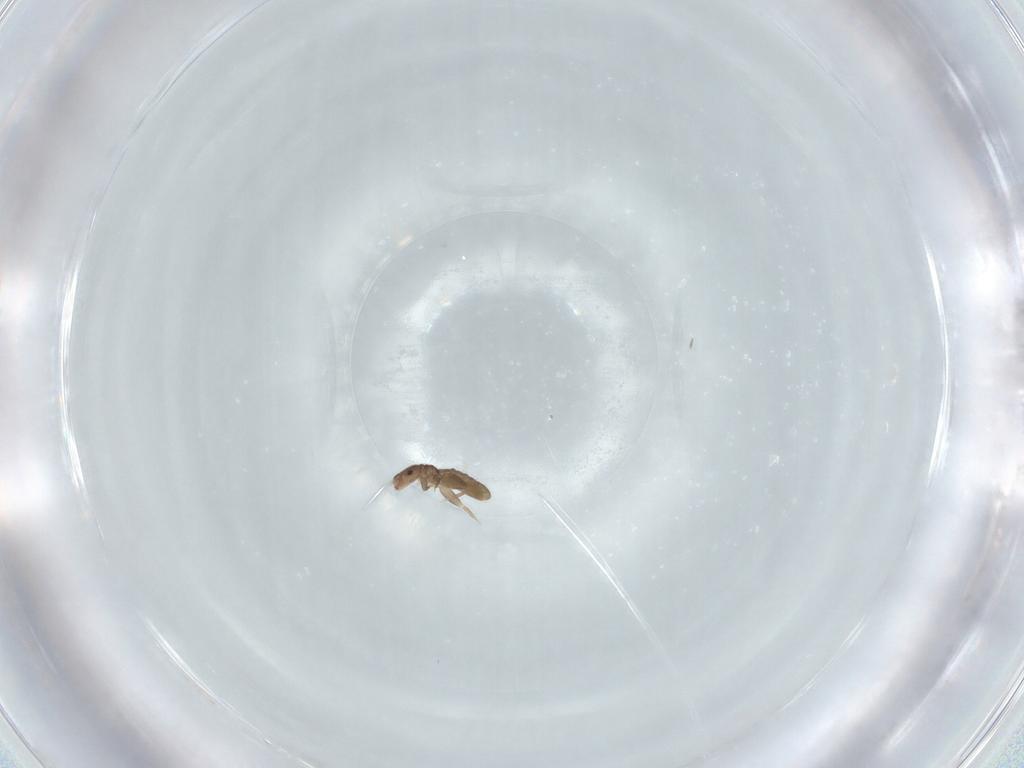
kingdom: Animalia
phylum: Arthropoda
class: Insecta
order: Psocodea
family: Liposcelididae
